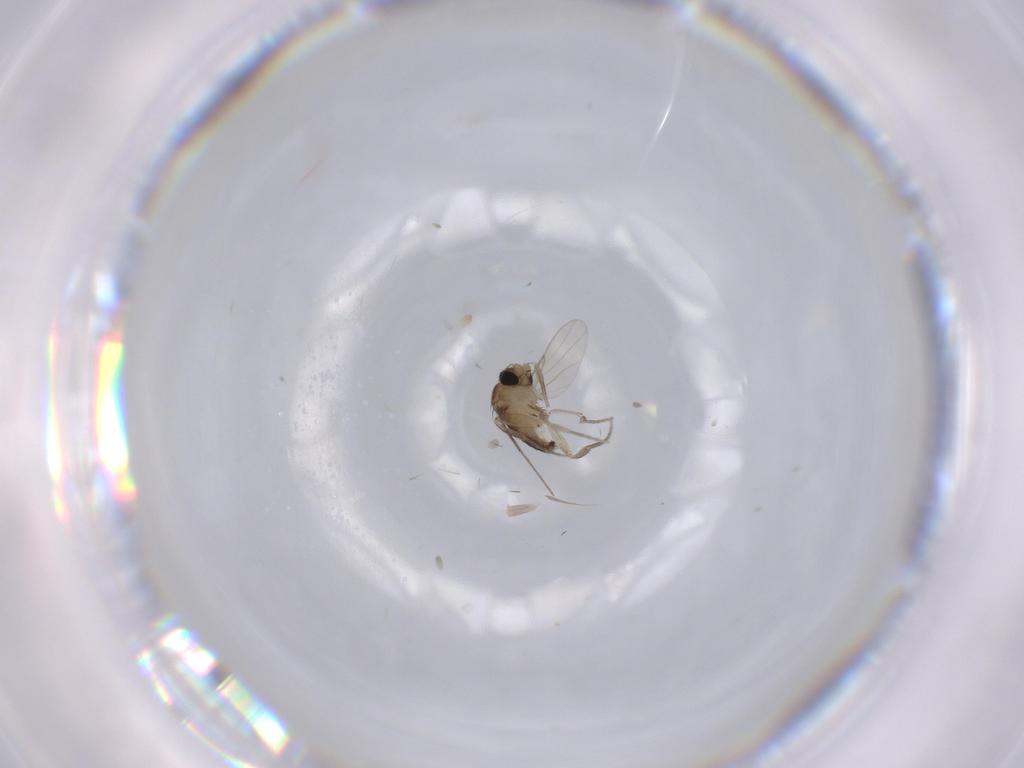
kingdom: Animalia
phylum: Arthropoda
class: Insecta
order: Diptera
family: Phoridae
